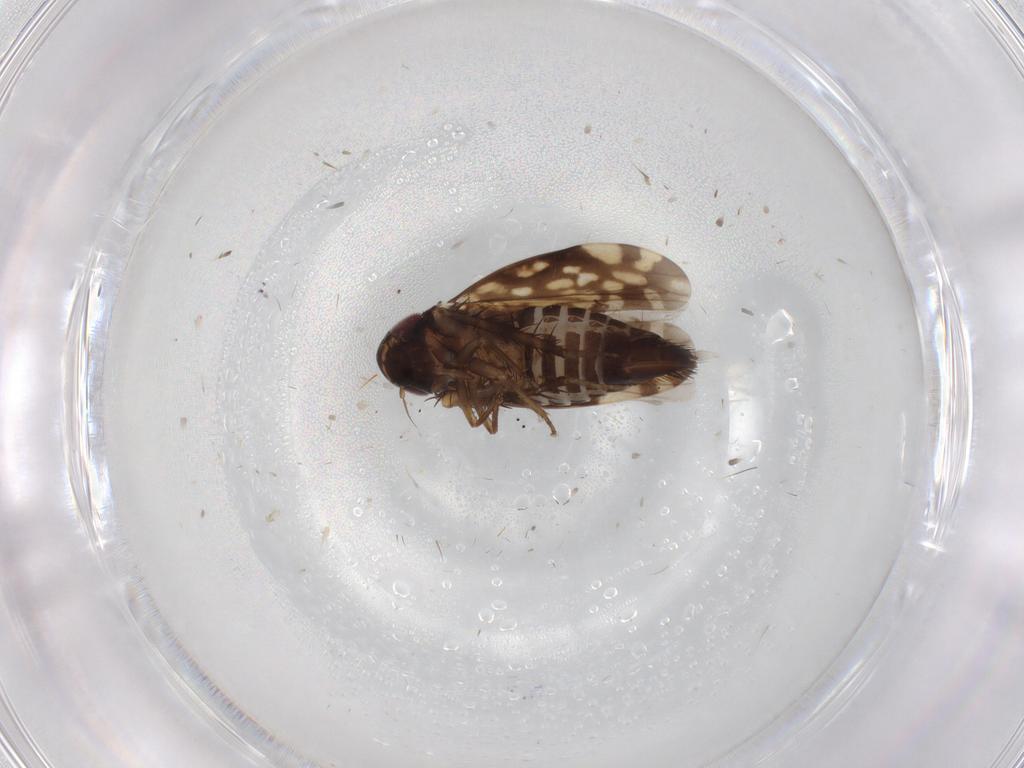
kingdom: Animalia
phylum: Arthropoda
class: Insecta
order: Hemiptera
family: Cicadellidae
